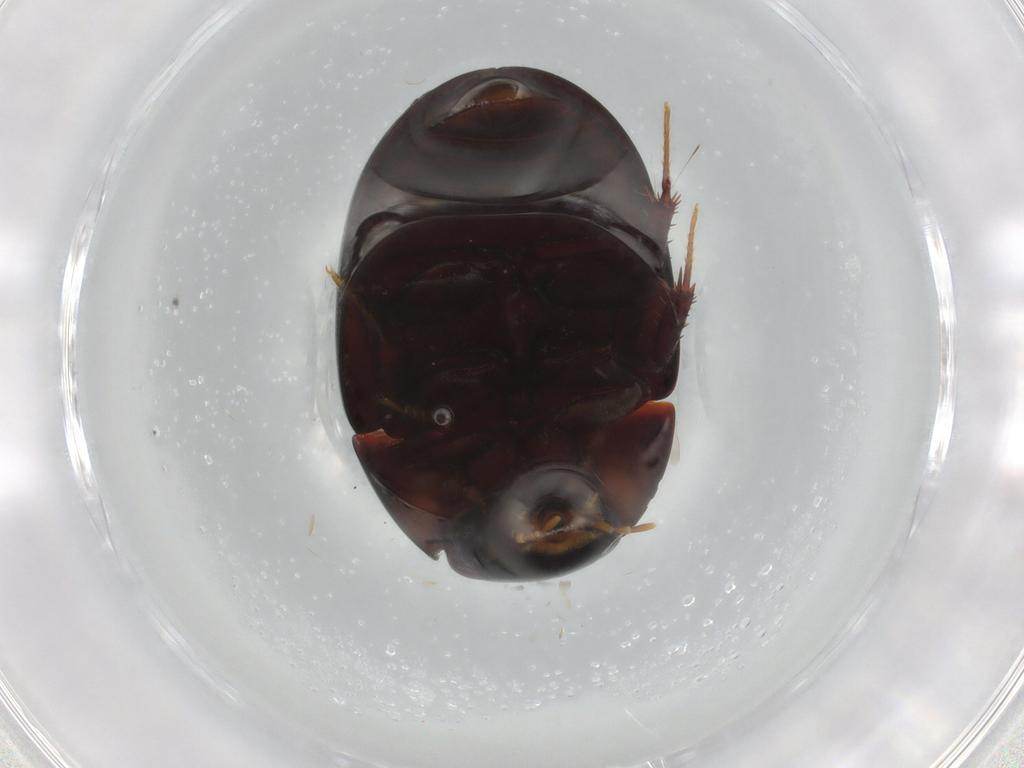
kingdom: Animalia
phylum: Arthropoda
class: Insecta
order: Coleoptera
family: Hydrophilidae
